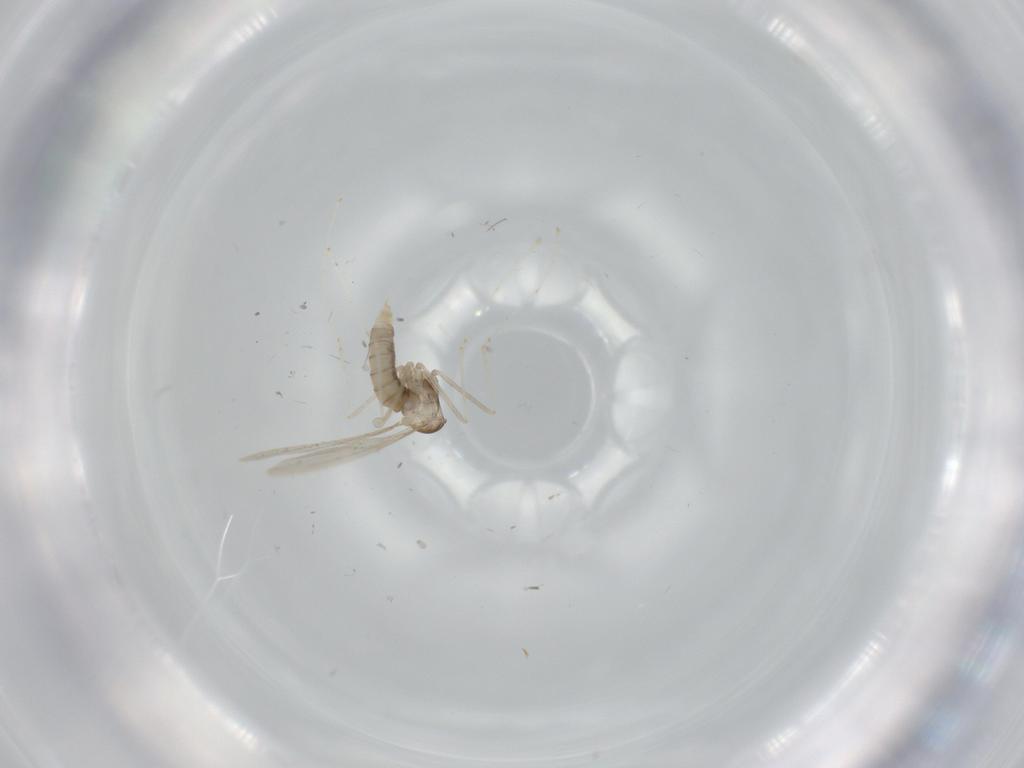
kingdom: Animalia
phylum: Arthropoda
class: Insecta
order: Diptera
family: Cecidomyiidae
